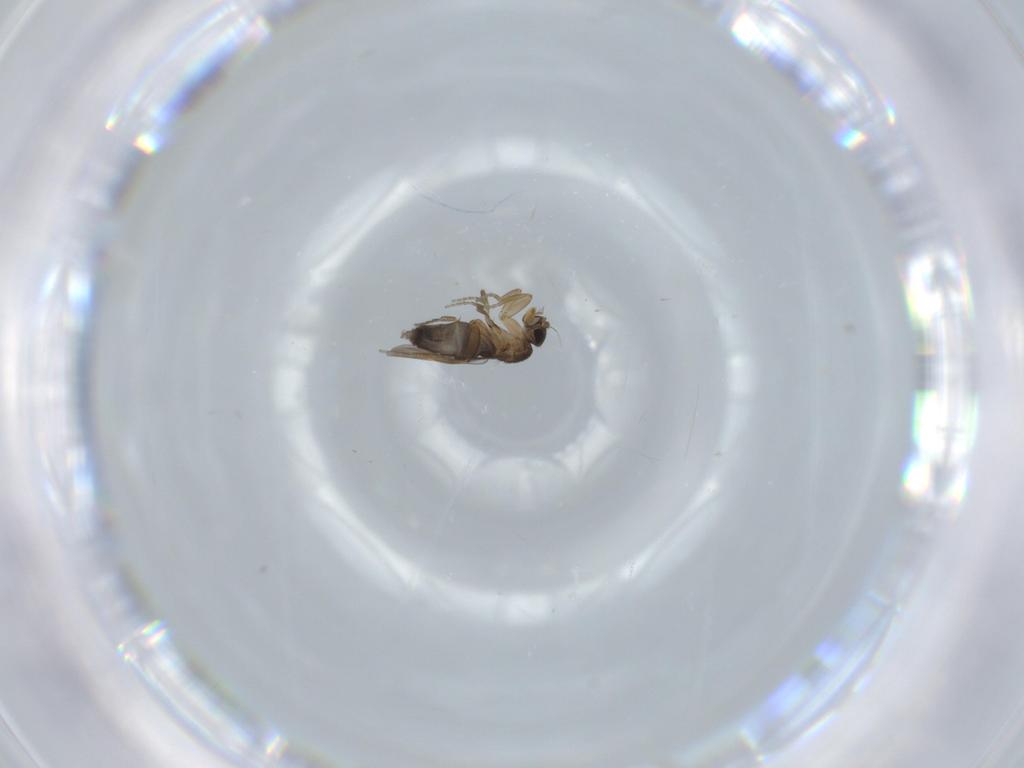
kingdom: Animalia
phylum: Arthropoda
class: Insecta
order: Diptera
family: Phoridae
